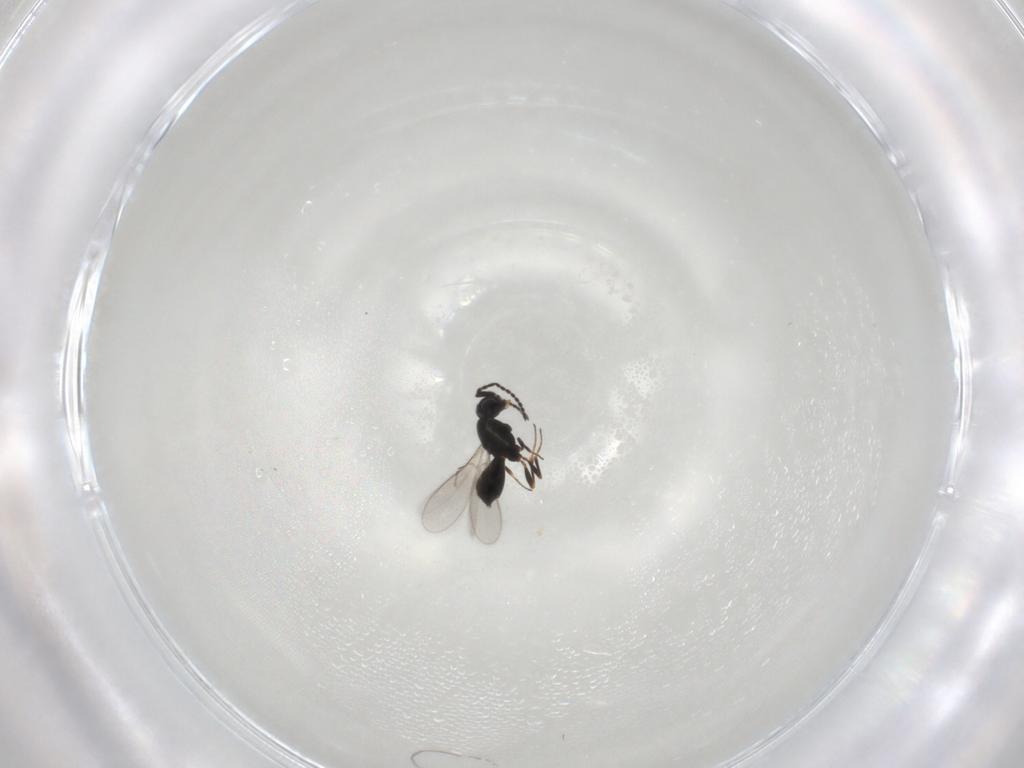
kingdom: Animalia
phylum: Arthropoda
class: Insecta
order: Hymenoptera
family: Scelionidae
